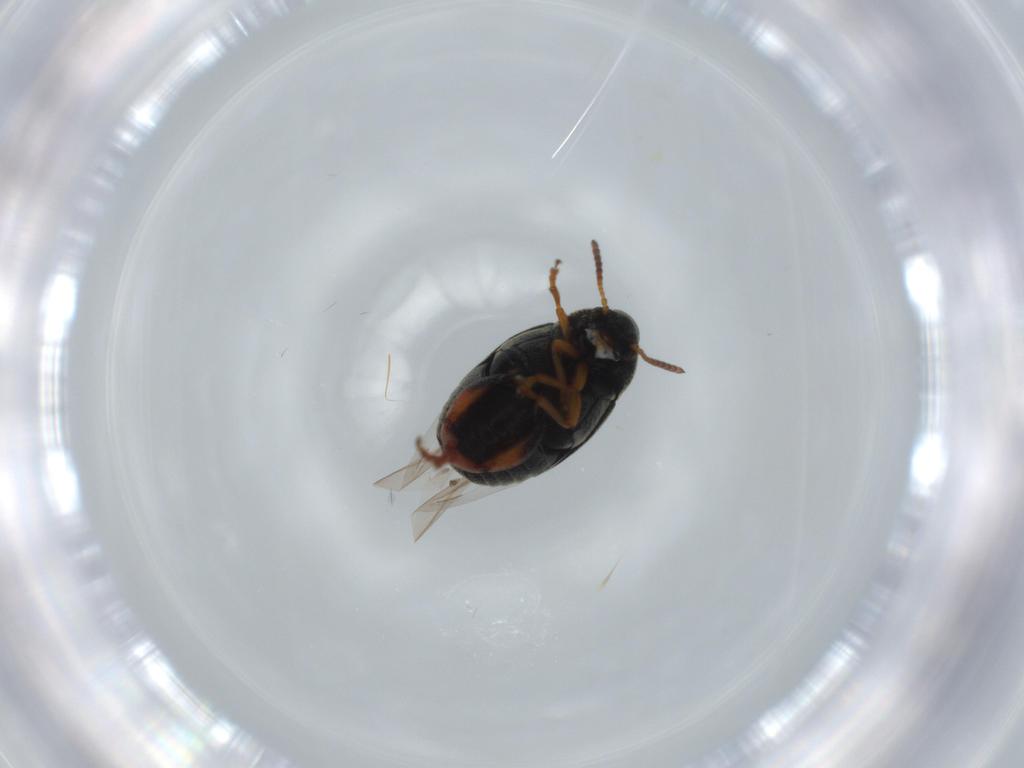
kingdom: Animalia
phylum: Arthropoda
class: Insecta
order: Coleoptera
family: Chrysomelidae
